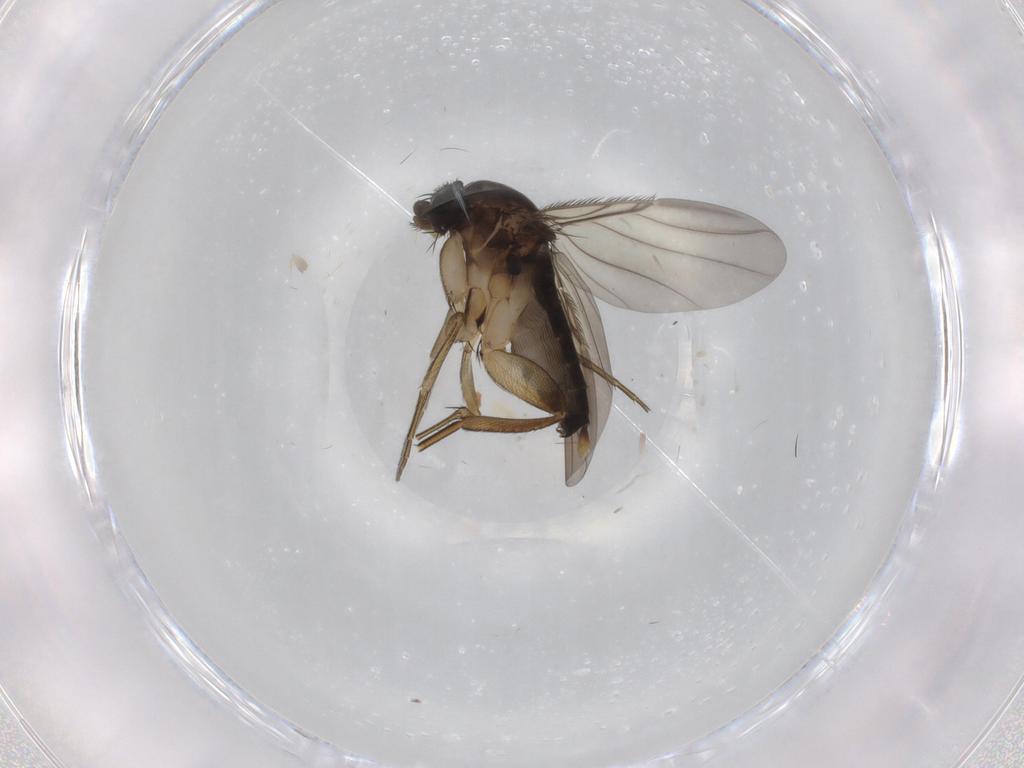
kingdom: Animalia
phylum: Arthropoda
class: Insecta
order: Diptera
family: Phoridae
